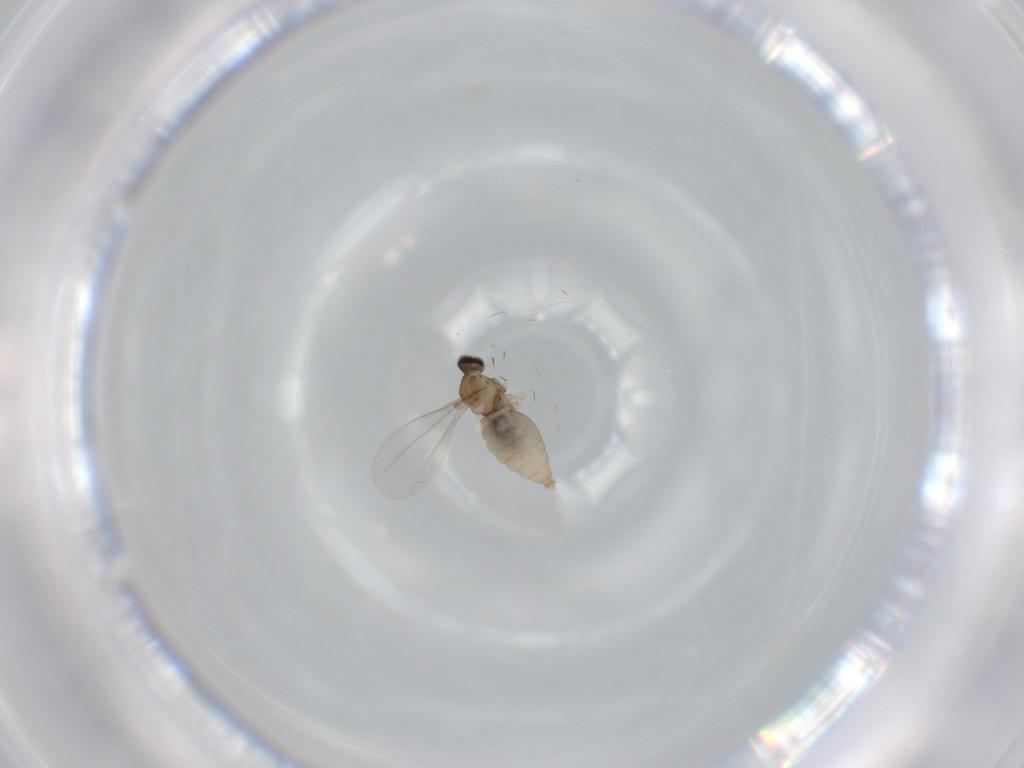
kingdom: Animalia
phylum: Arthropoda
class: Insecta
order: Diptera
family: Cecidomyiidae
